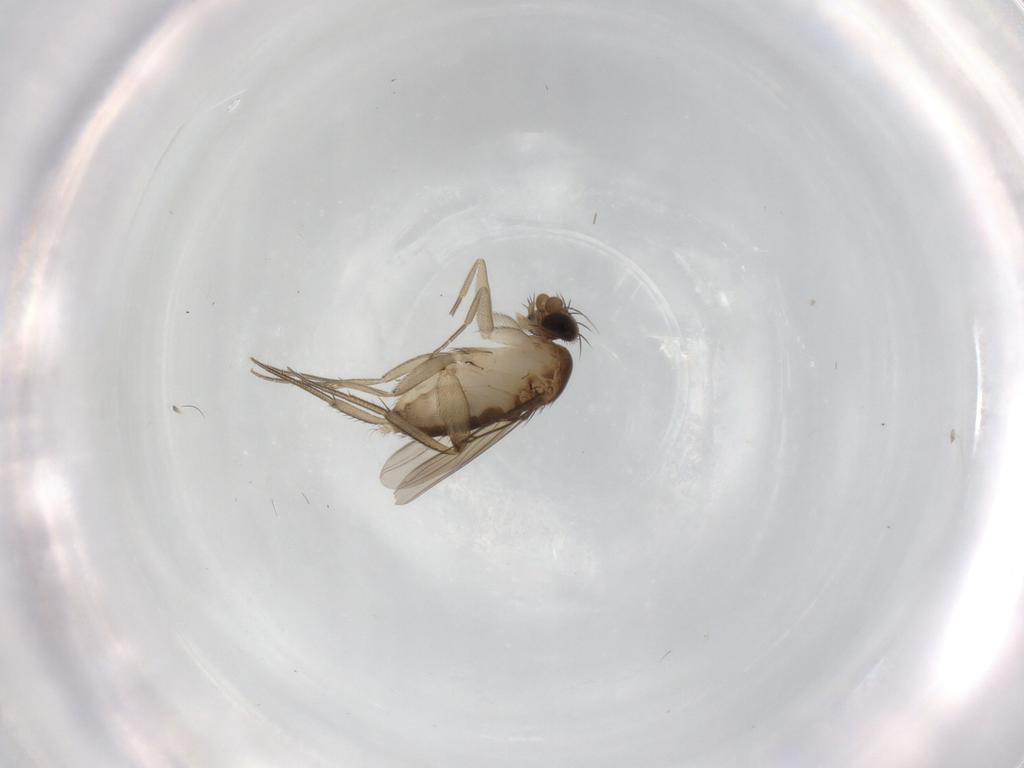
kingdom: Animalia
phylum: Arthropoda
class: Insecta
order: Diptera
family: Phoridae
